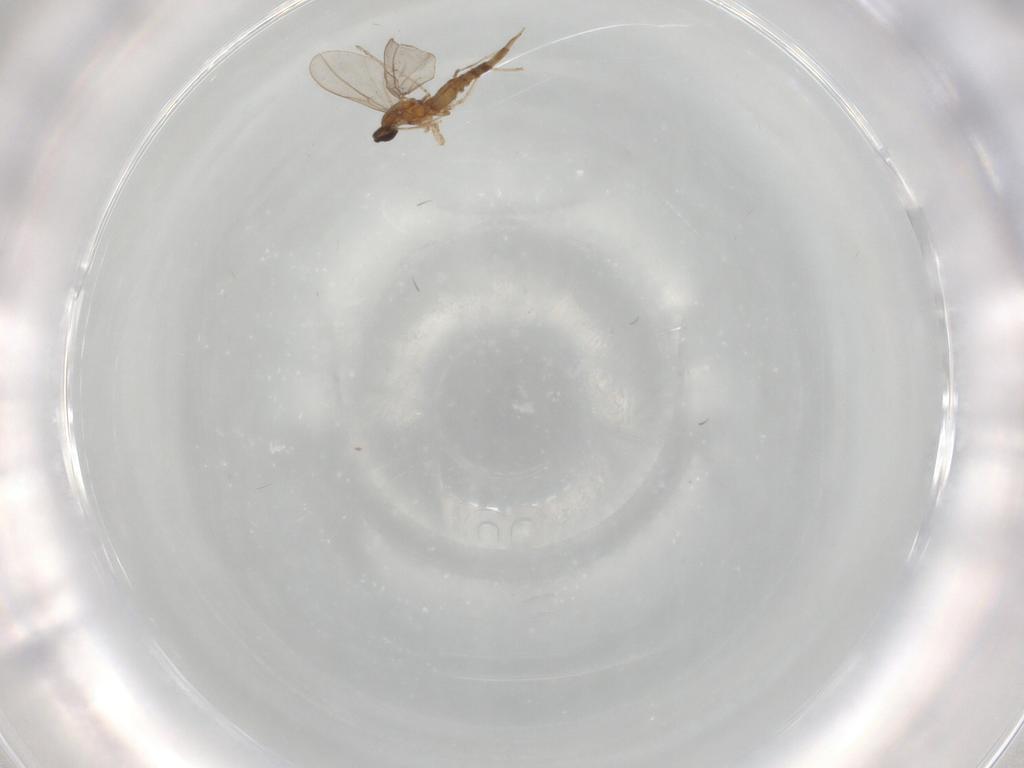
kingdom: Animalia
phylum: Arthropoda
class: Insecta
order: Diptera
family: Cecidomyiidae
